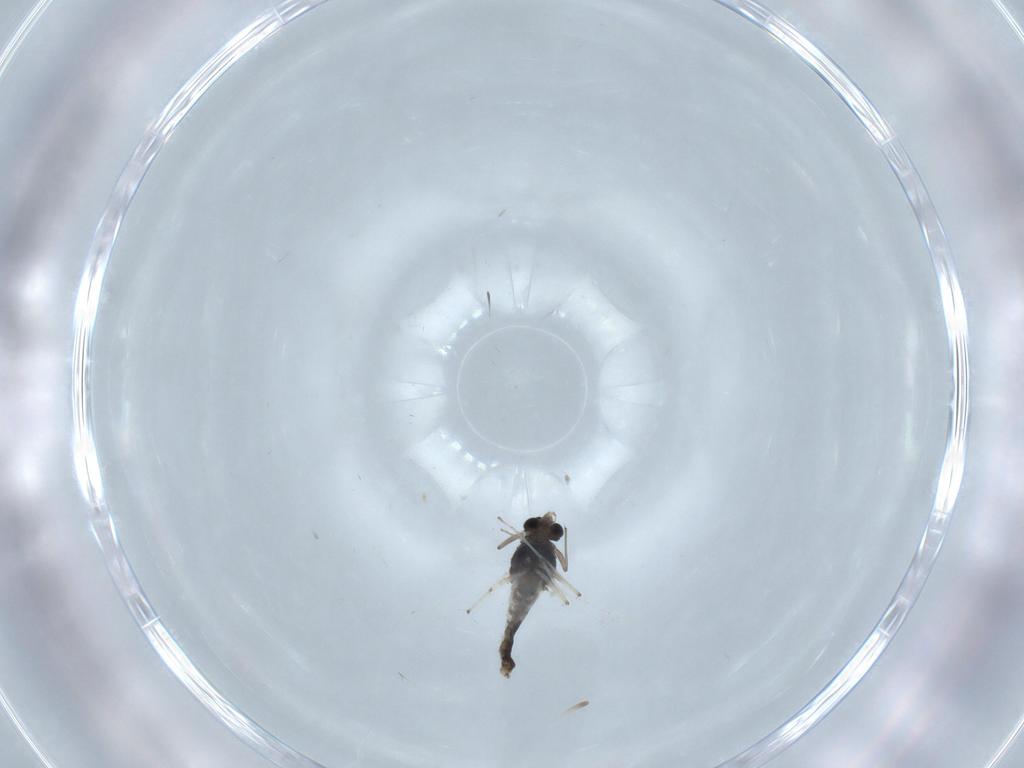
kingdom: Animalia
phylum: Arthropoda
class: Insecta
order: Diptera
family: Chironomidae
